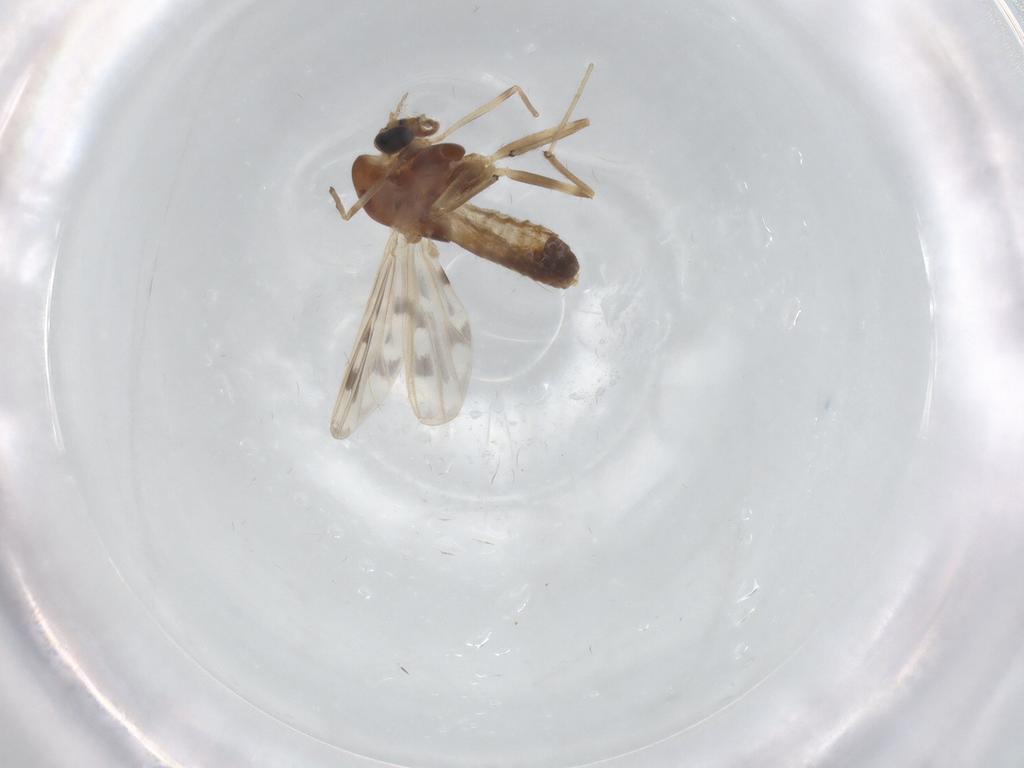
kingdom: Animalia
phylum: Arthropoda
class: Insecta
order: Diptera
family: Chironomidae
